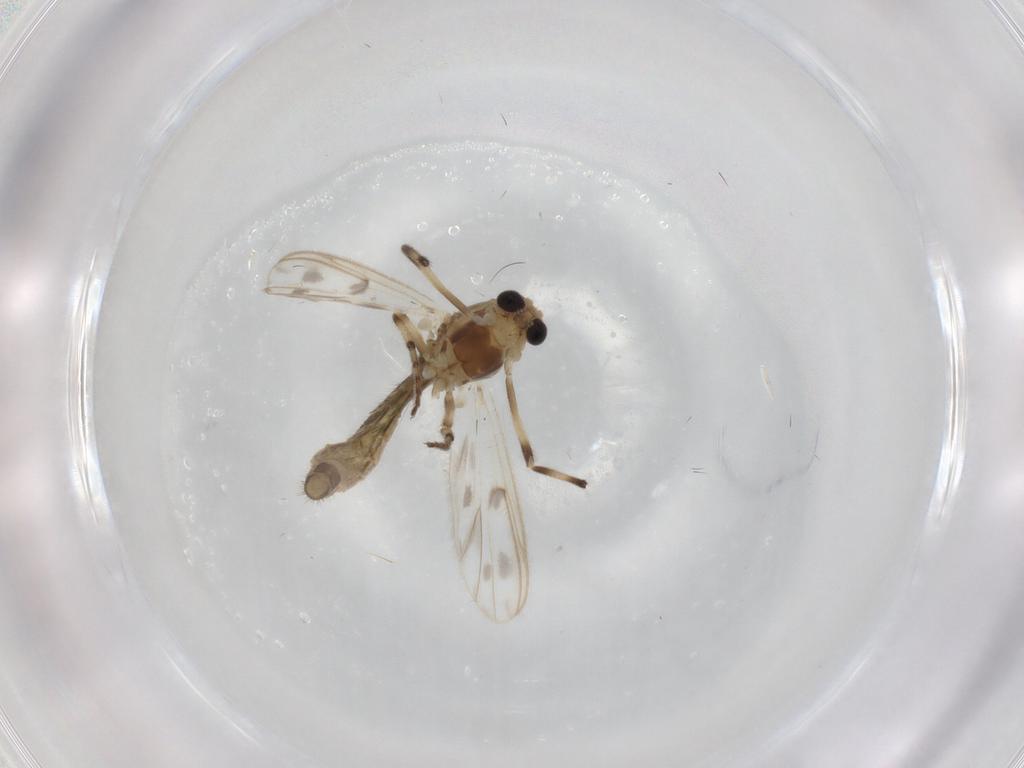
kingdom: Animalia
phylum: Arthropoda
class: Insecta
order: Diptera
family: Chironomidae
